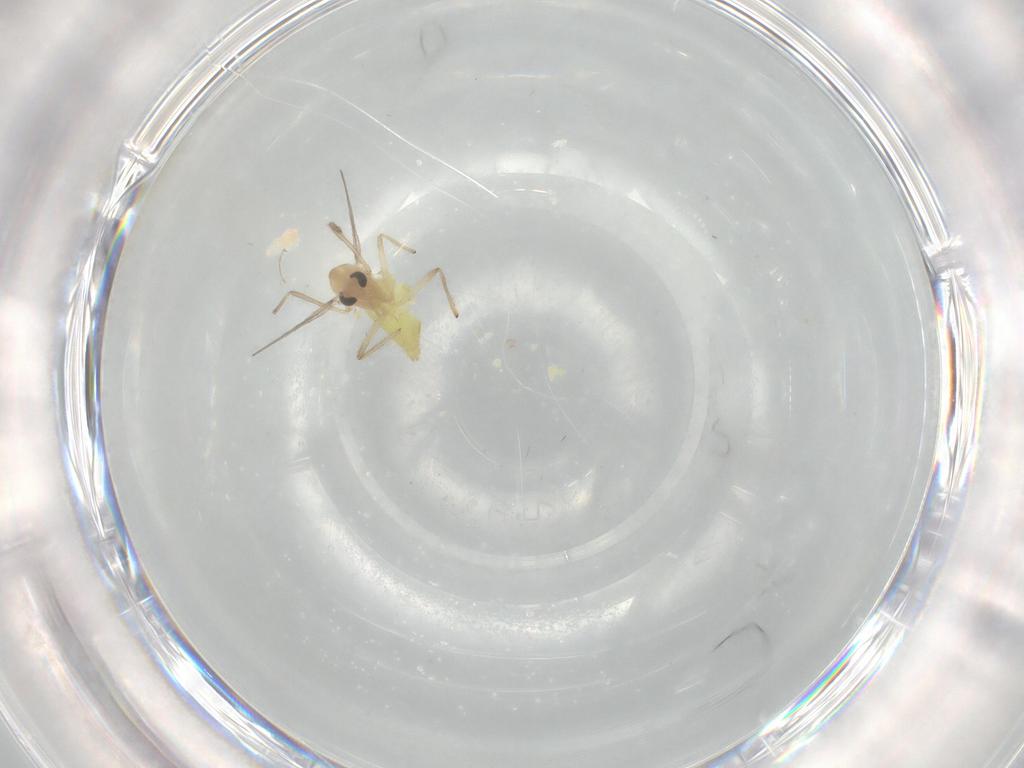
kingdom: Animalia
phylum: Arthropoda
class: Insecta
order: Diptera
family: Chironomidae
